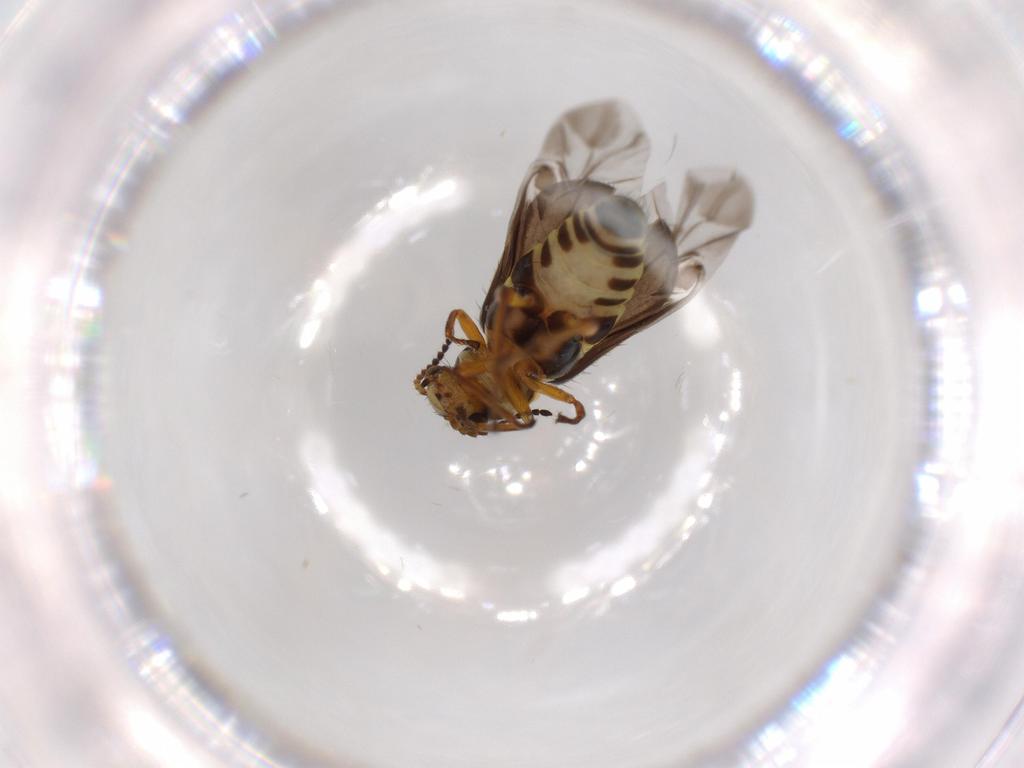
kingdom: Animalia
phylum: Arthropoda
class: Insecta
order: Coleoptera
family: Melyridae
